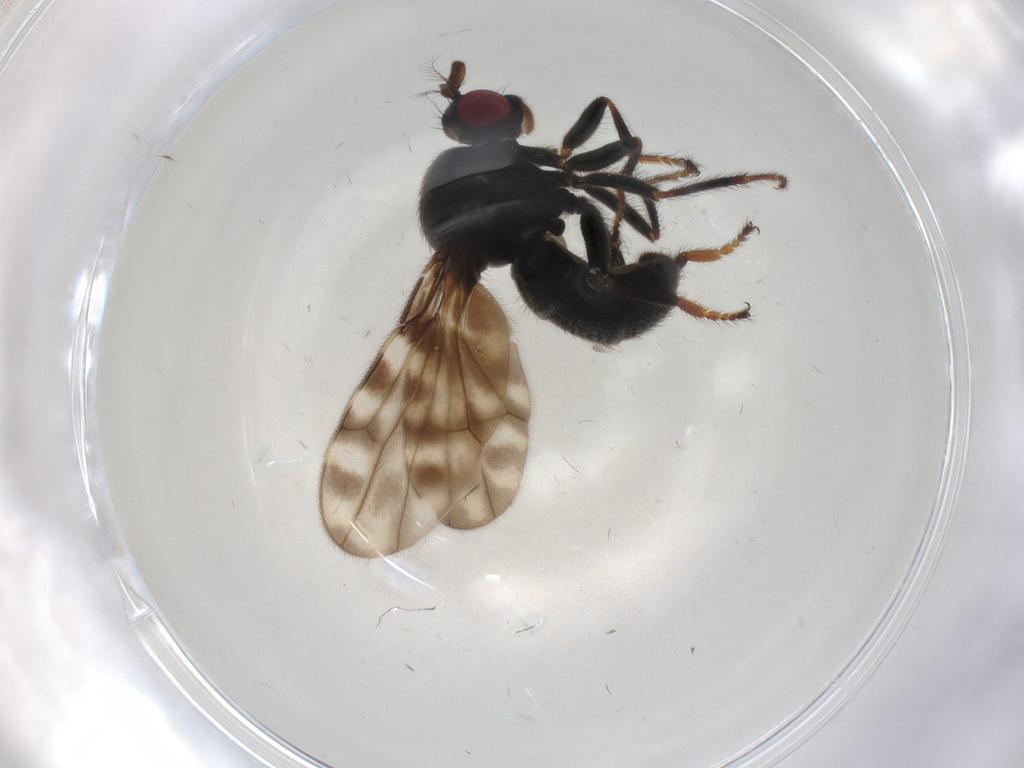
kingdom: Animalia
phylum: Arthropoda
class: Insecta
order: Diptera
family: Ephydridae
